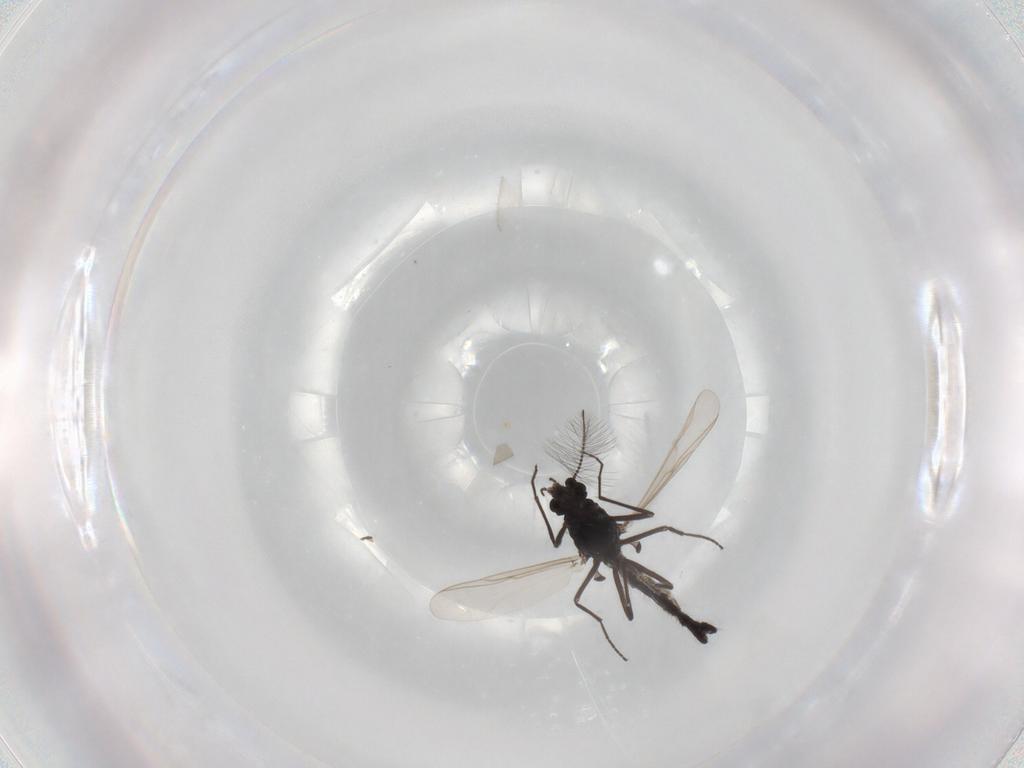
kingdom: Animalia
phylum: Arthropoda
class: Insecta
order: Diptera
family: Chironomidae
